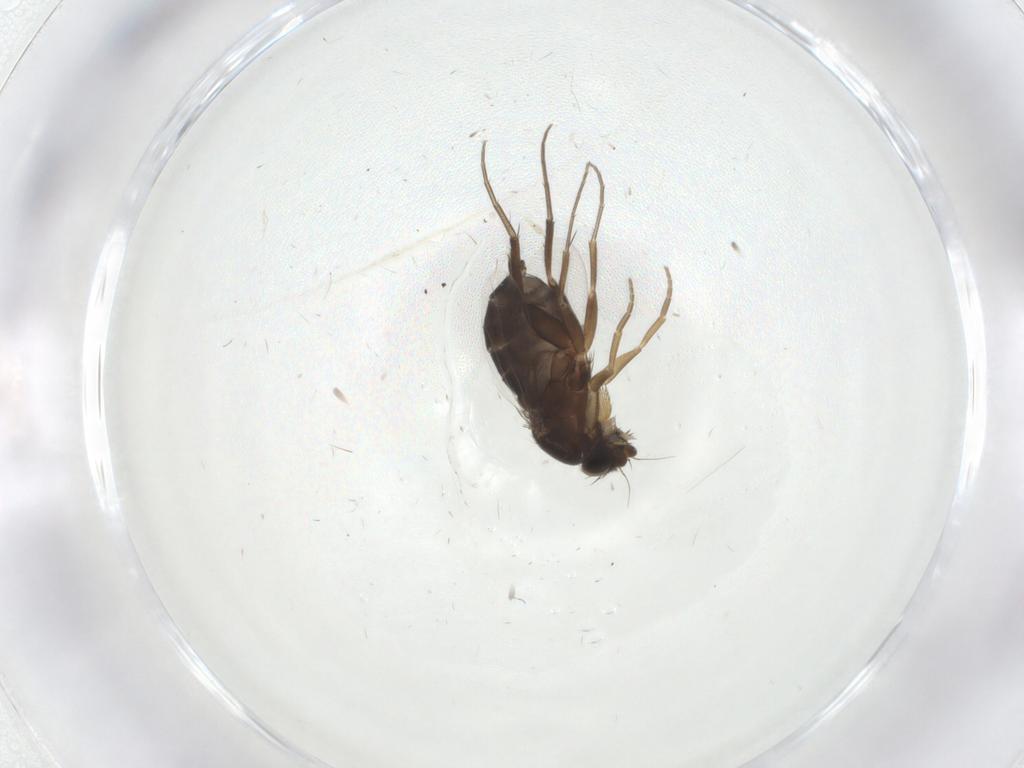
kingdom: Animalia
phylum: Arthropoda
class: Insecta
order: Diptera
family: Phoridae
